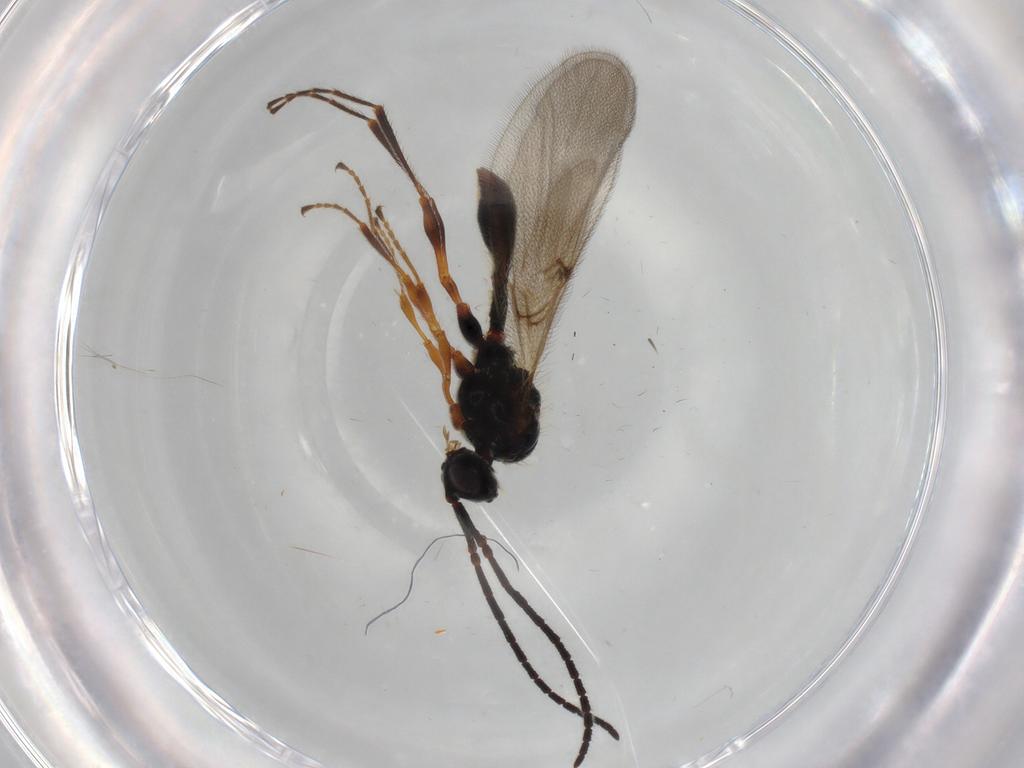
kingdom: Animalia
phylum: Arthropoda
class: Insecta
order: Hymenoptera
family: Diapriidae
